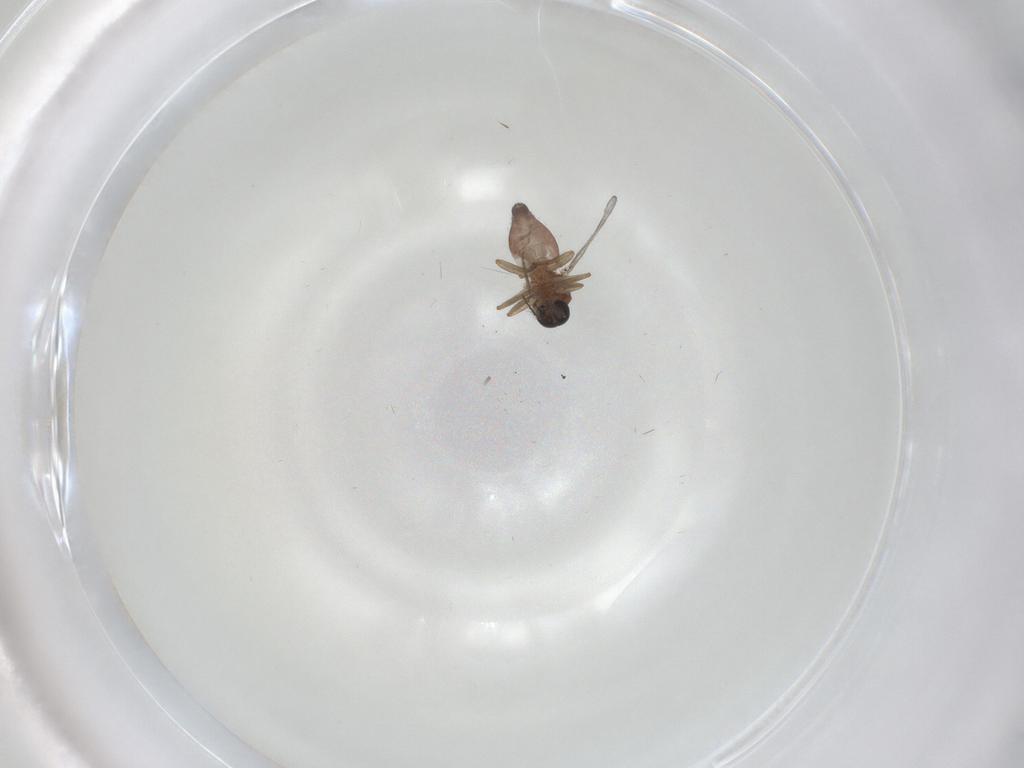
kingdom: Animalia
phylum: Arthropoda
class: Insecta
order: Diptera
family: Ceratopogonidae
